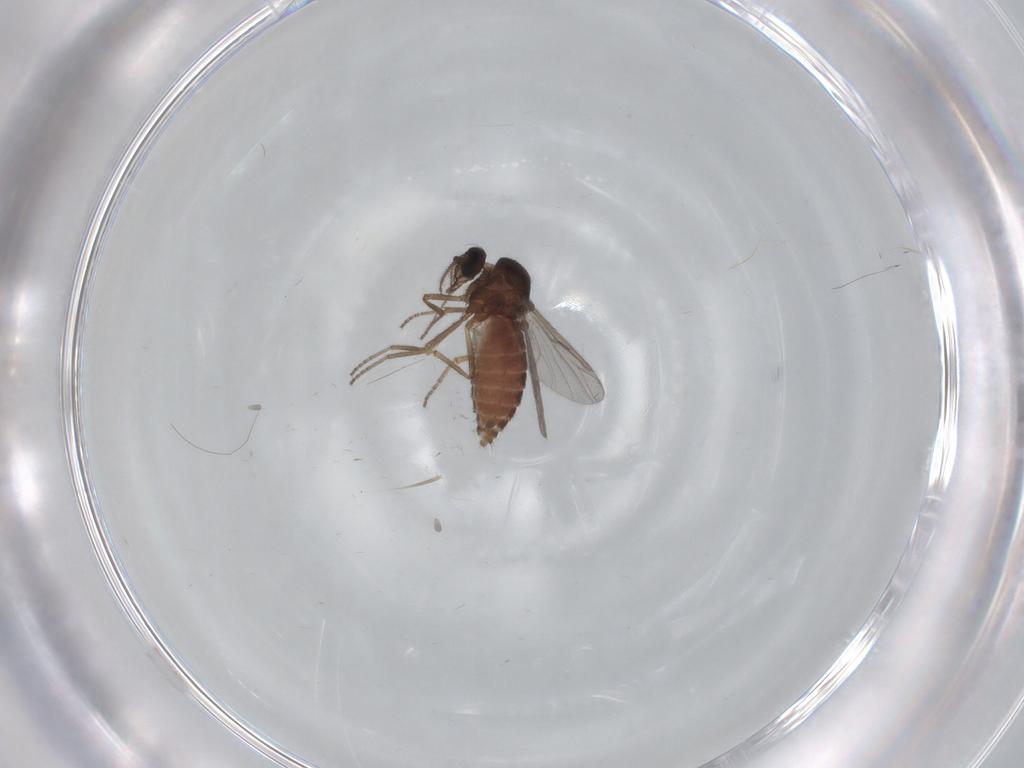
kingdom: Animalia
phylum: Arthropoda
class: Insecta
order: Diptera
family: Ceratopogonidae
